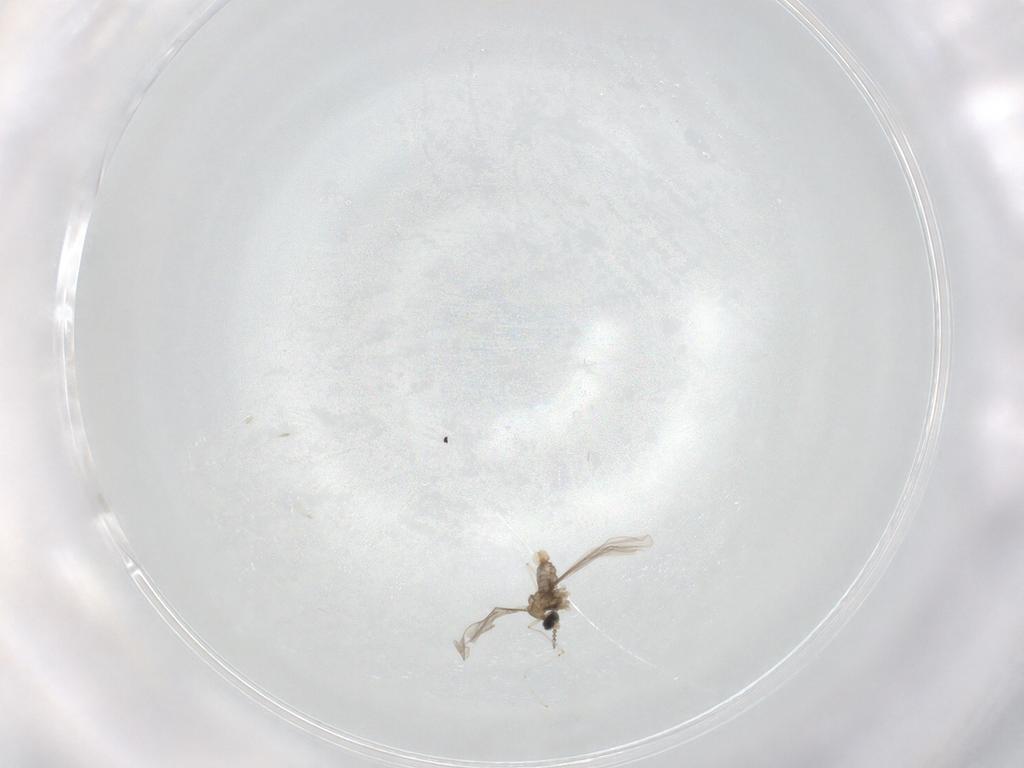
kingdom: Animalia
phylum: Arthropoda
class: Insecta
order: Diptera
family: Cecidomyiidae
